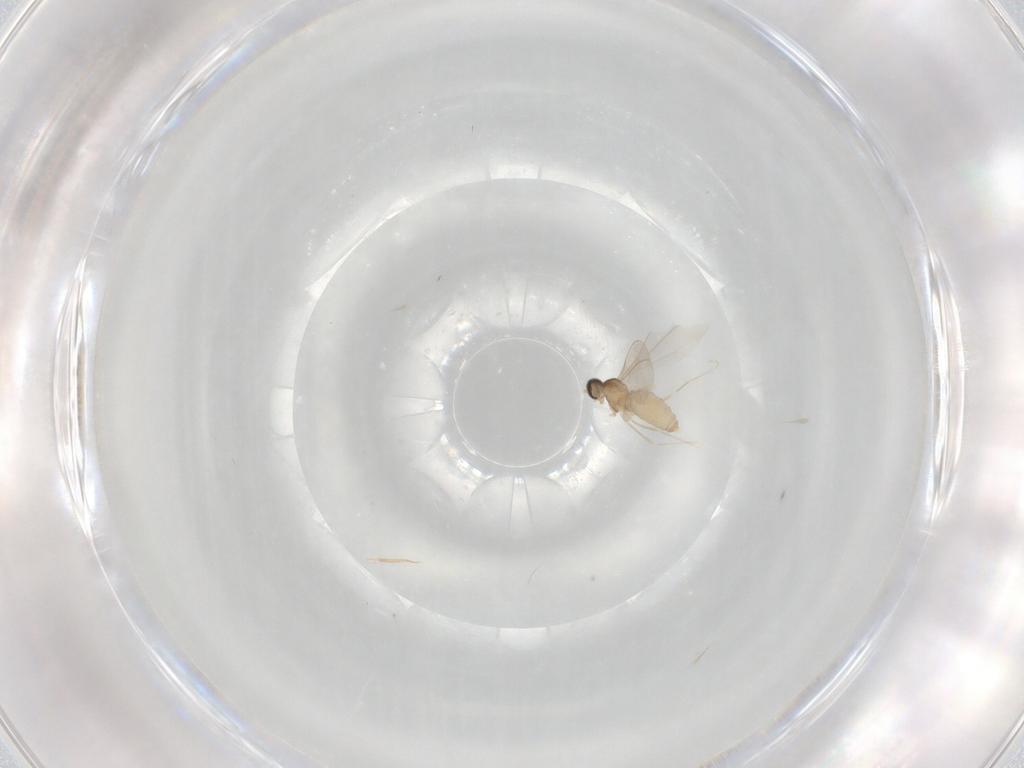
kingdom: Animalia
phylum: Arthropoda
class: Insecta
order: Diptera
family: Cecidomyiidae
